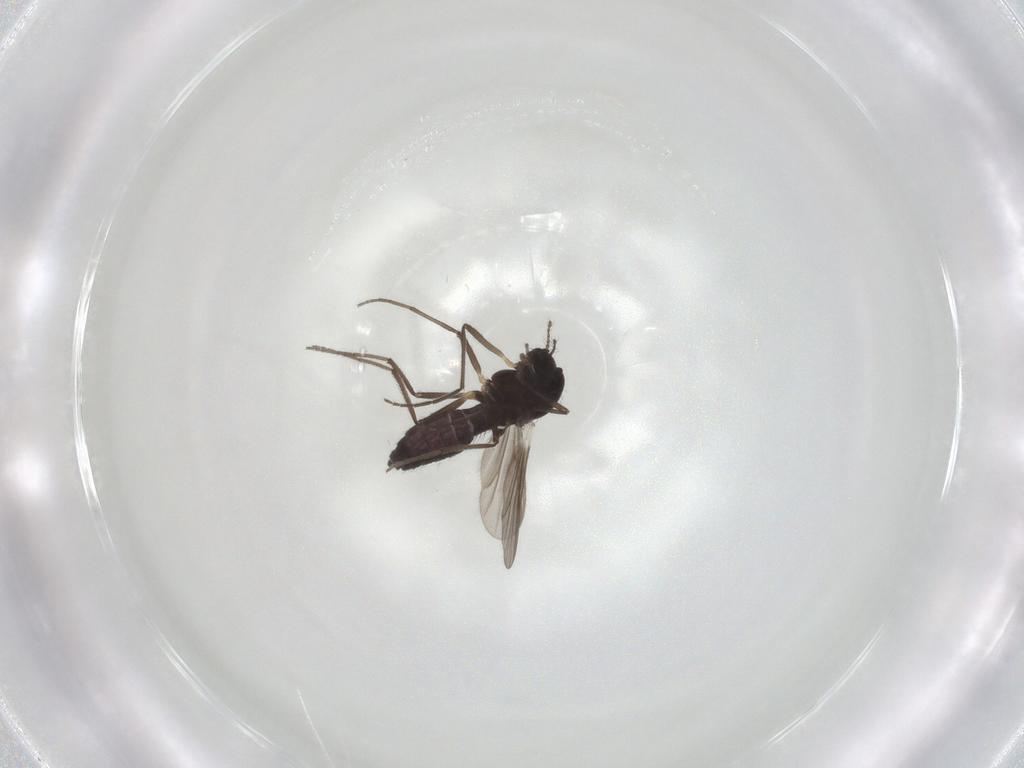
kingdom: Animalia
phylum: Arthropoda
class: Insecta
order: Diptera
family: Chironomidae
